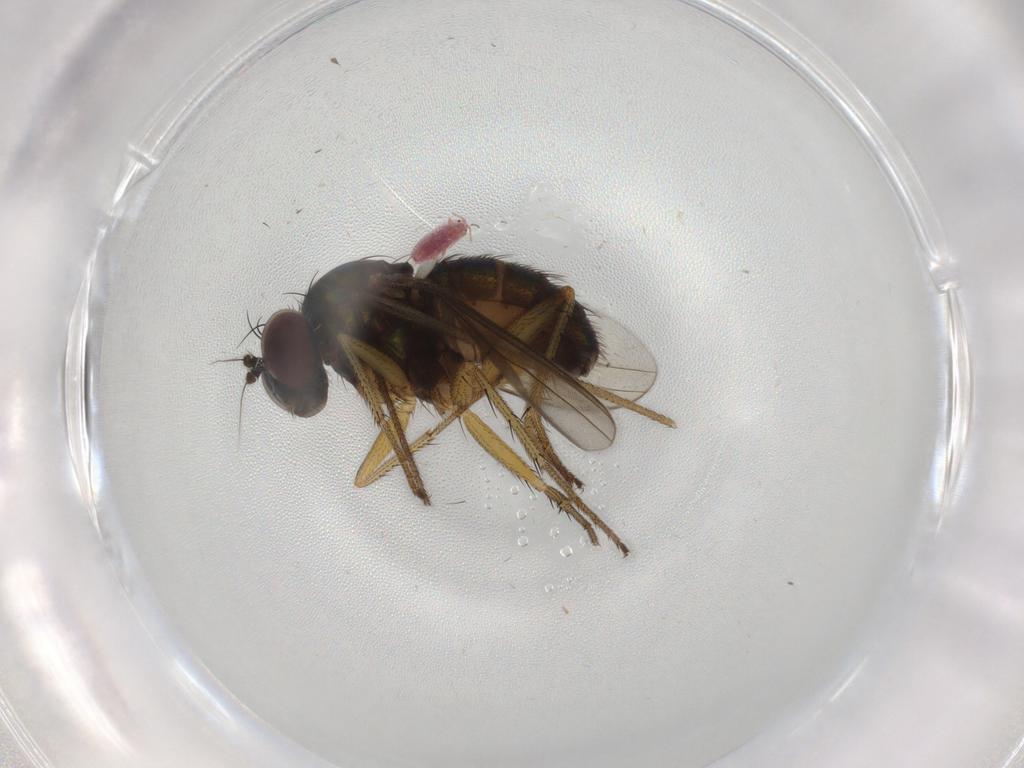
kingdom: Animalia
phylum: Arthropoda
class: Insecta
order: Diptera
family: Dolichopodidae
